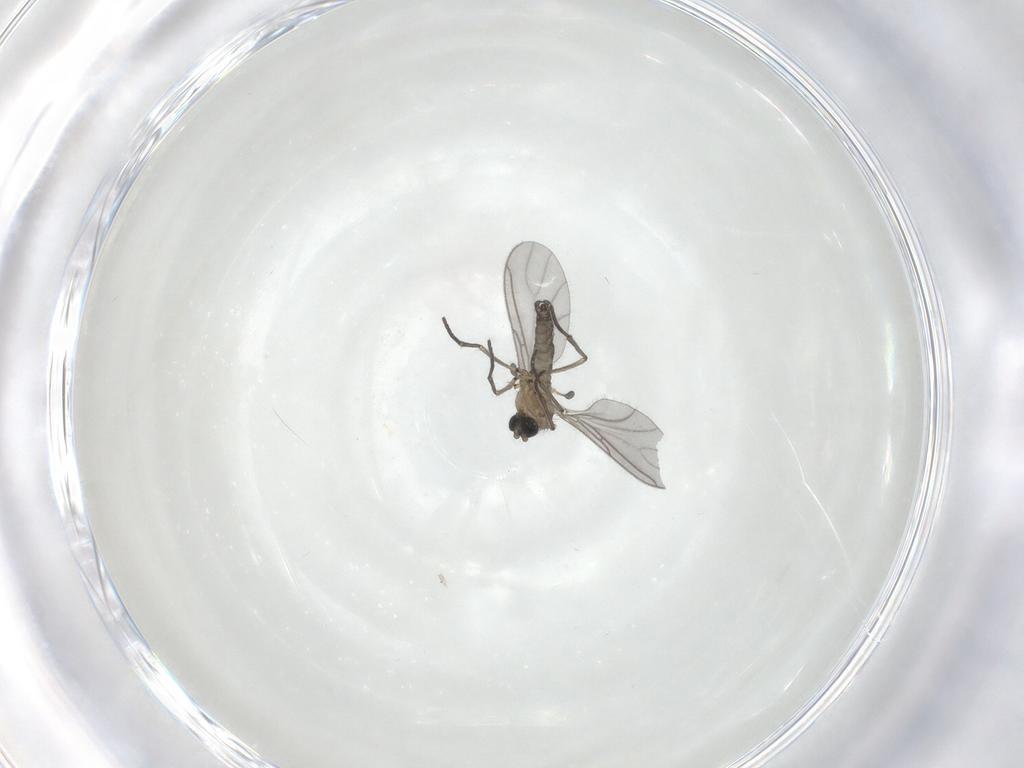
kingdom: Animalia
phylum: Arthropoda
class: Insecta
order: Diptera
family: Sciaridae
